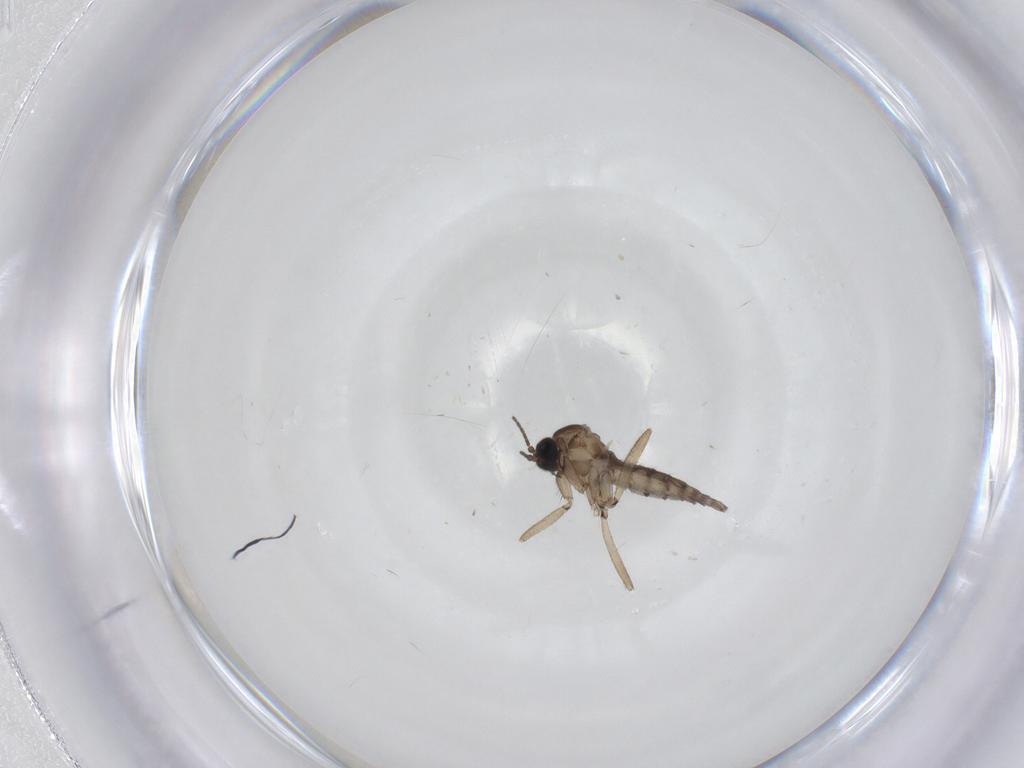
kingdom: Animalia
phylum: Arthropoda
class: Insecta
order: Diptera
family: Sciaridae
